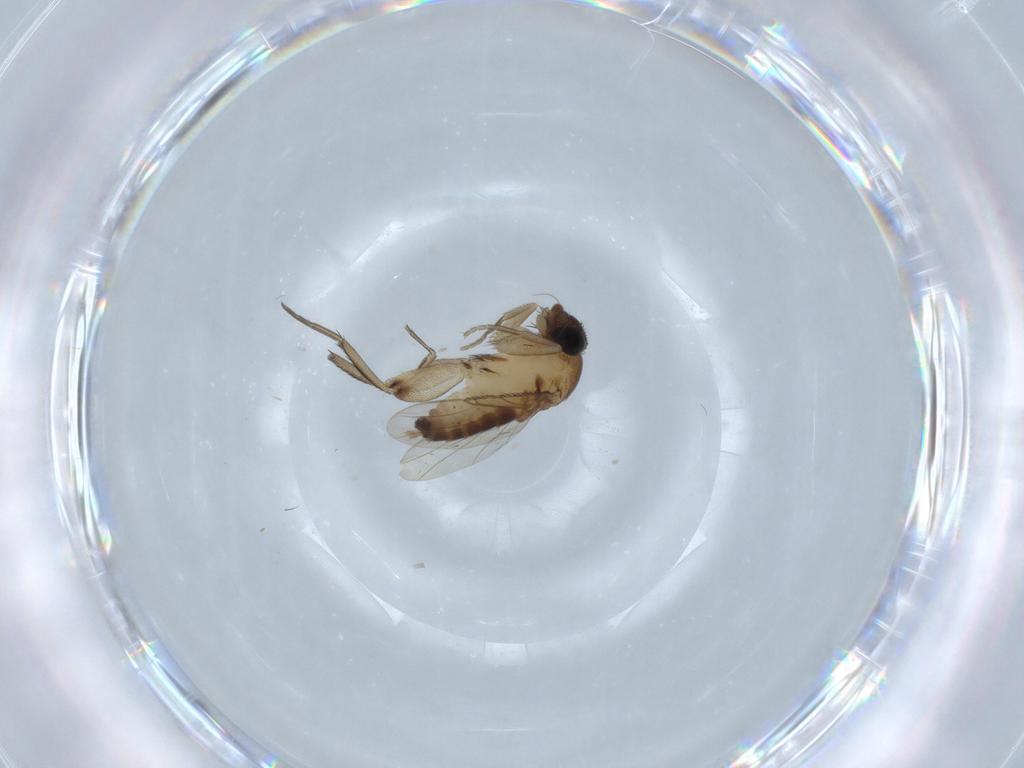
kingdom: Animalia
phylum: Arthropoda
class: Insecta
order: Diptera
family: Phoridae
